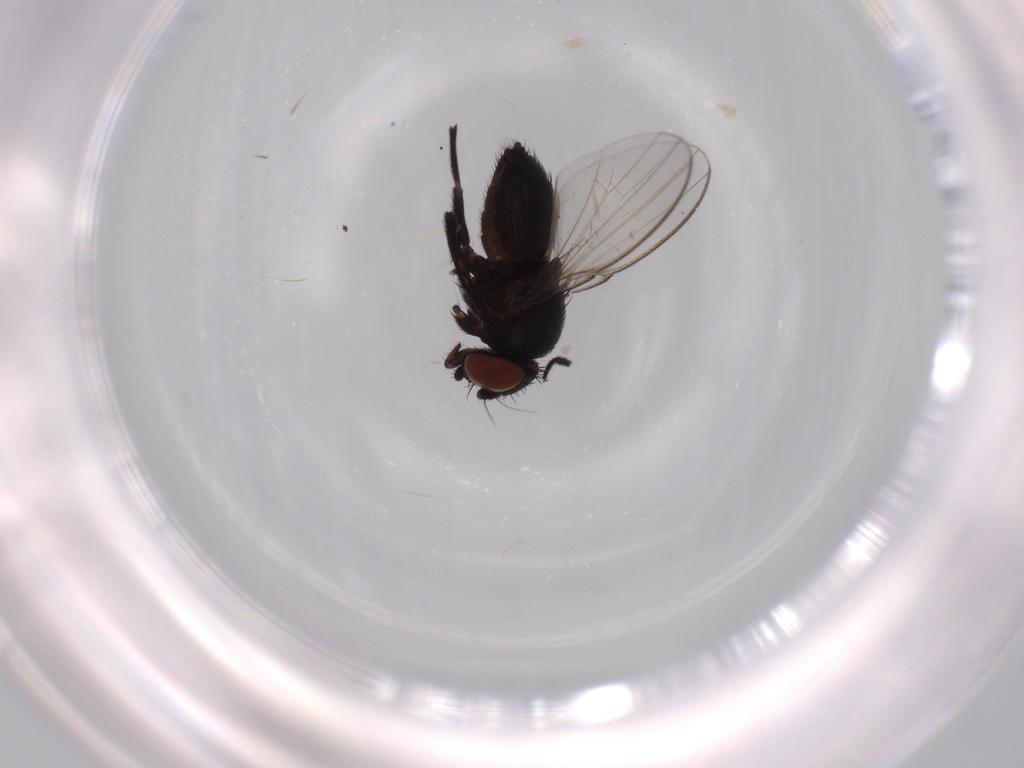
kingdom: Animalia
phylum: Arthropoda
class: Insecta
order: Diptera
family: Milichiidae
